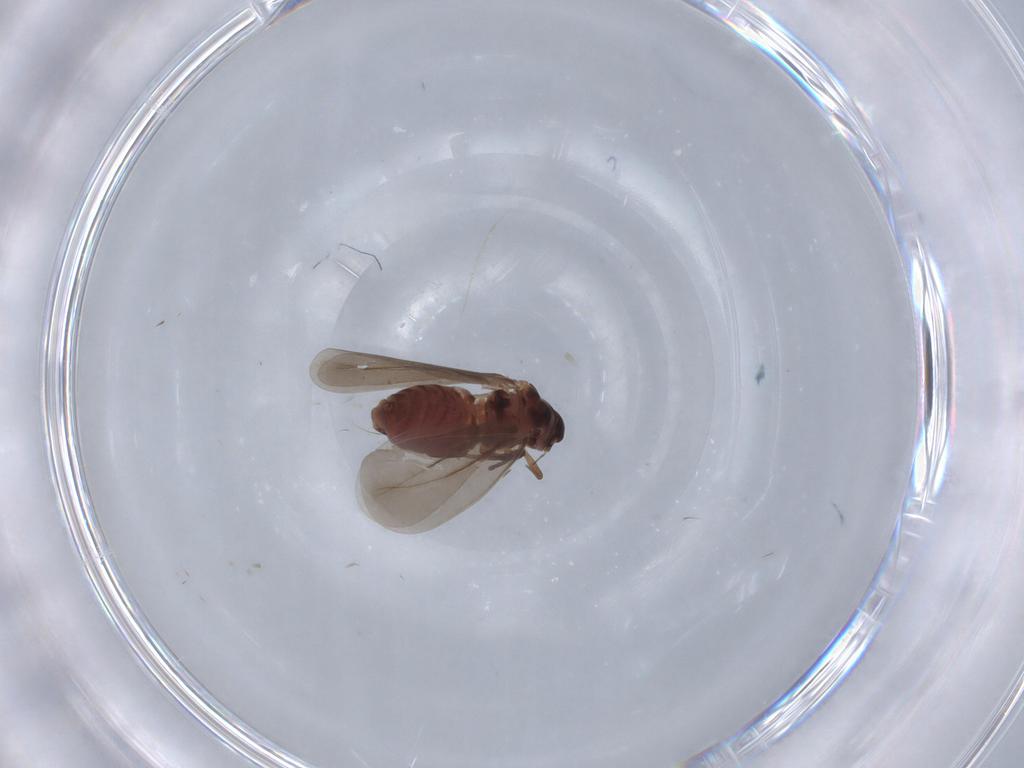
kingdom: Animalia
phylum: Arthropoda
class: Insecta
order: Hemiptera
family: Aleyrodidae
